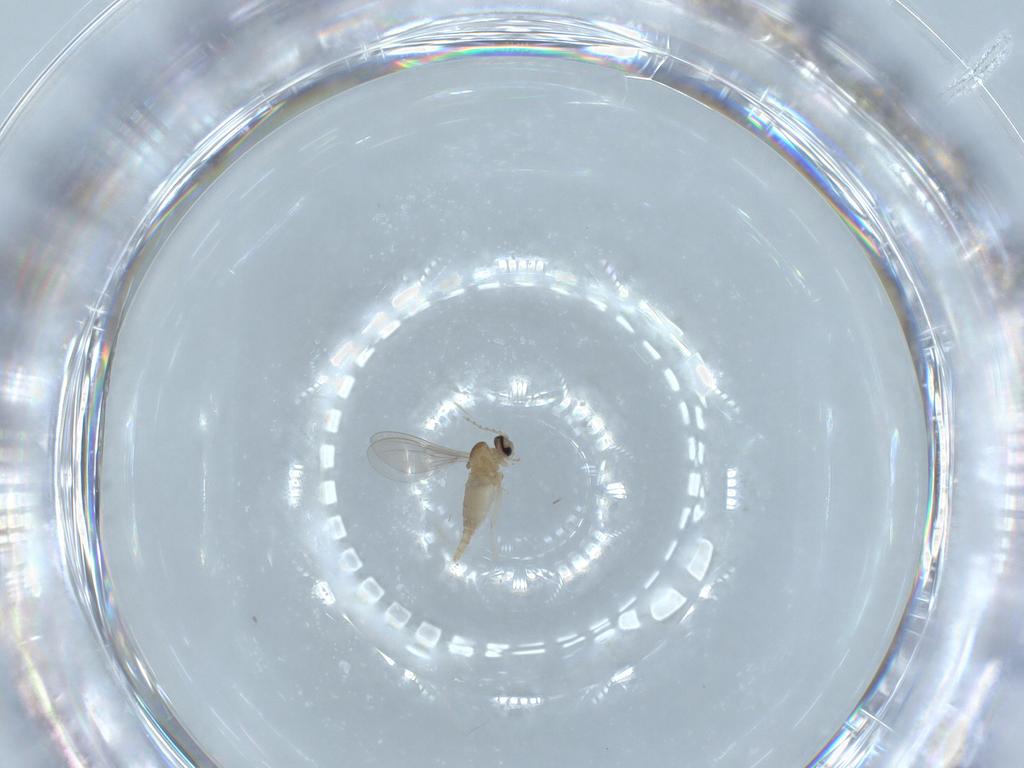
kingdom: Animalia
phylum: Arthropoda
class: Insecta
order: Diptera
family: Cecidomyiidae
